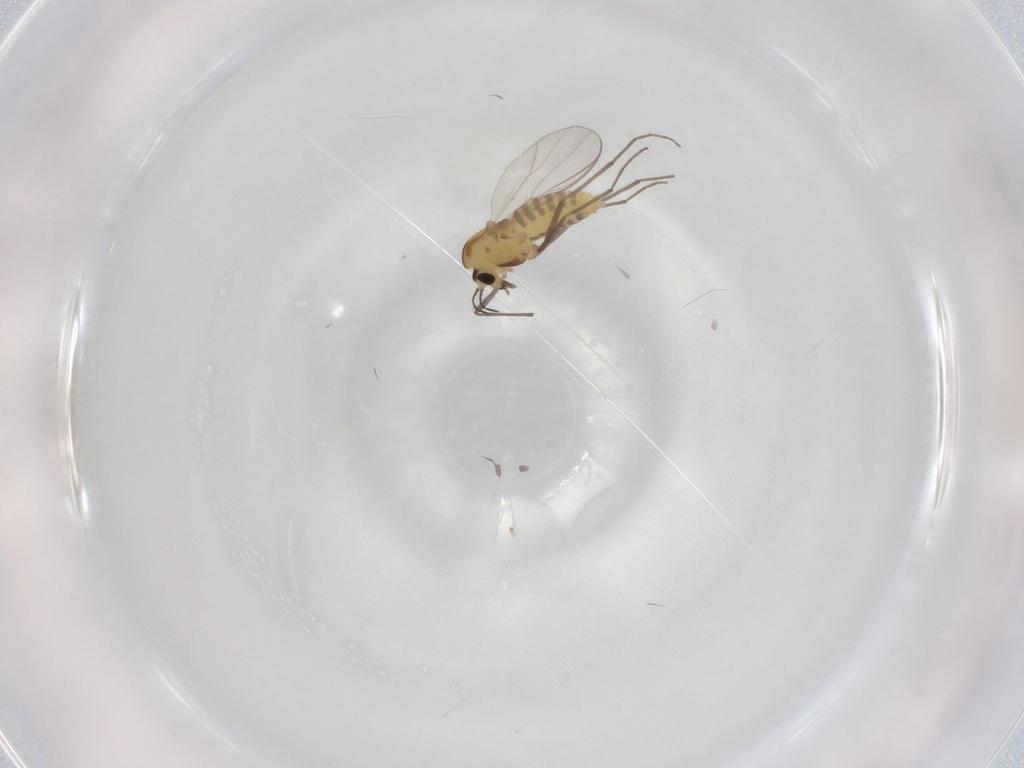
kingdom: Animalia
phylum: Arthropoda
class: Insecta
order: Diptera
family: Chironomidae
